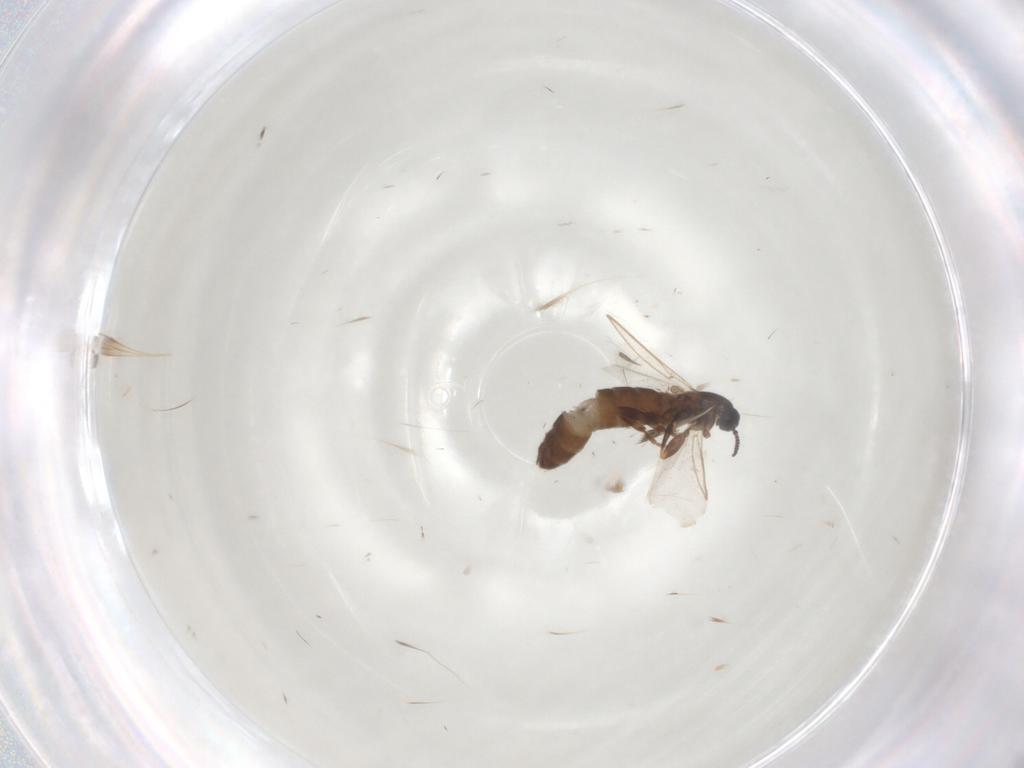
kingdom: Animalia
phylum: Arthropoda
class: Insecta
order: Diptera
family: Scatopsidae
